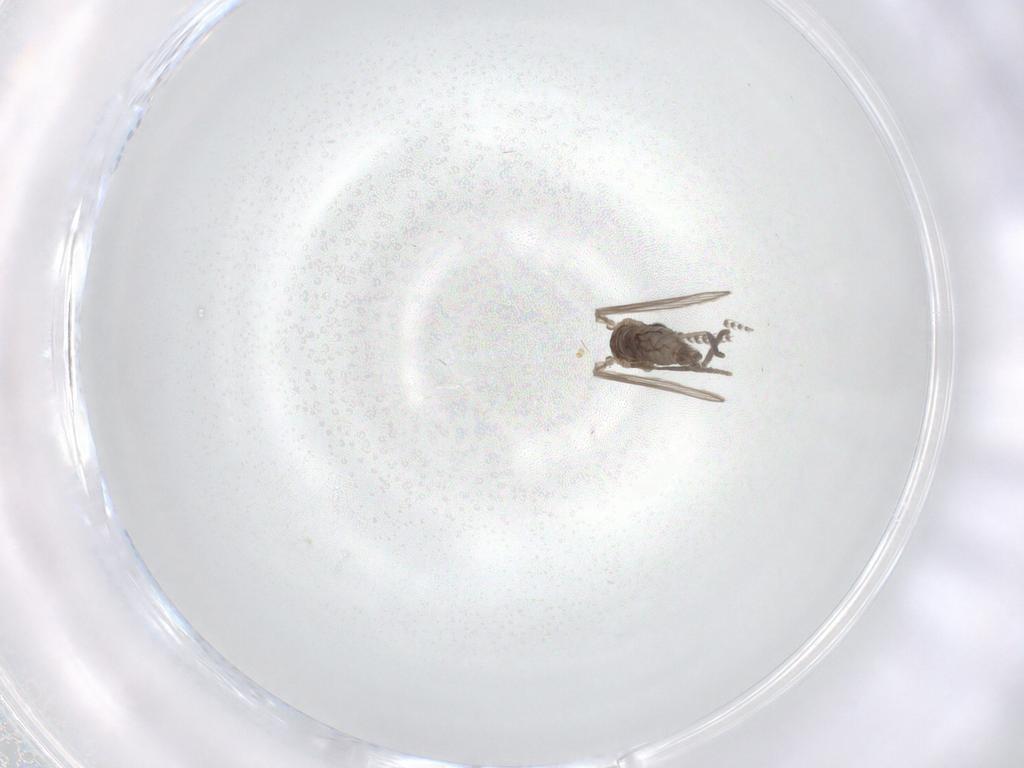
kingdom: Animalia
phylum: Arthropoda
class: Insecta
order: Diptera
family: Psychodidae
